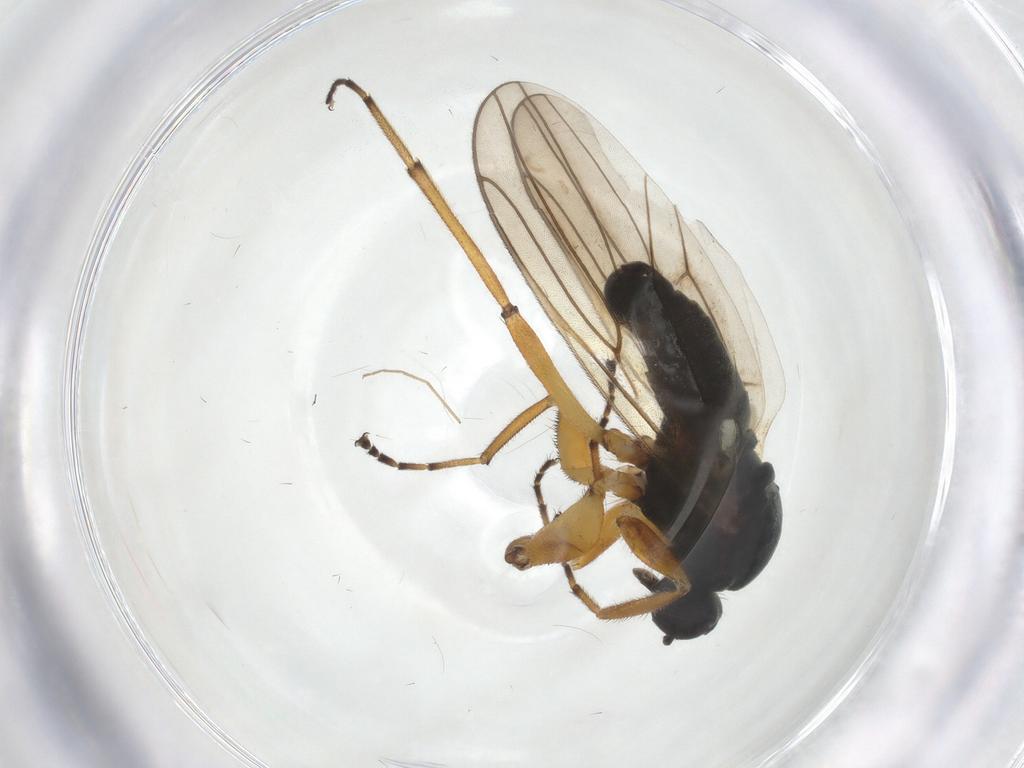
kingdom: Animalia
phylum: Arthropoda
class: Insecta
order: Diptera
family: Hybotidae
